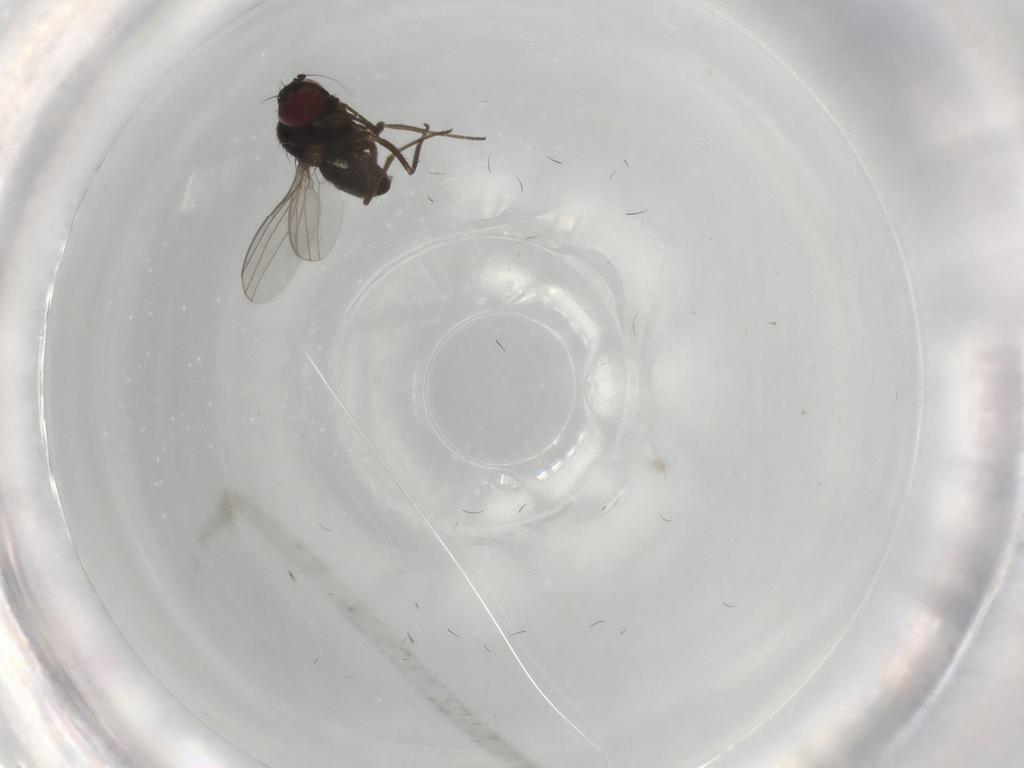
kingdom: Animalia
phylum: Arthropoda
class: Insecta
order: Diptera
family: Dolichopodidae
